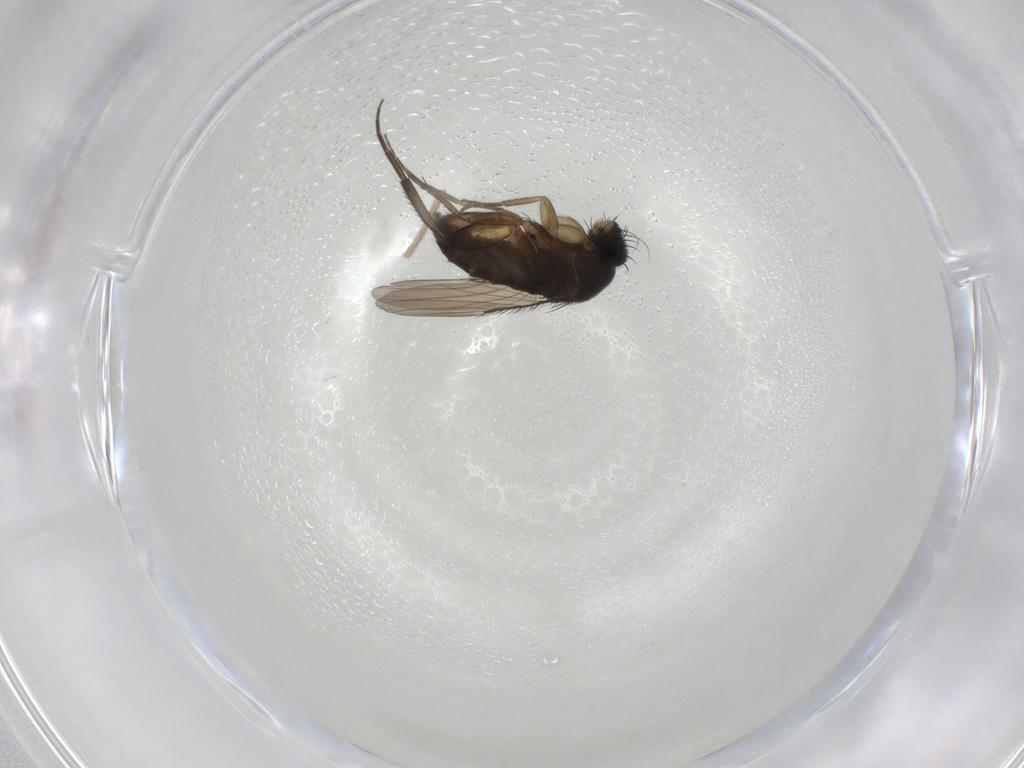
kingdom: Animalia
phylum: Arthropoda
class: Insecta
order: Diptera
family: Phoridae
